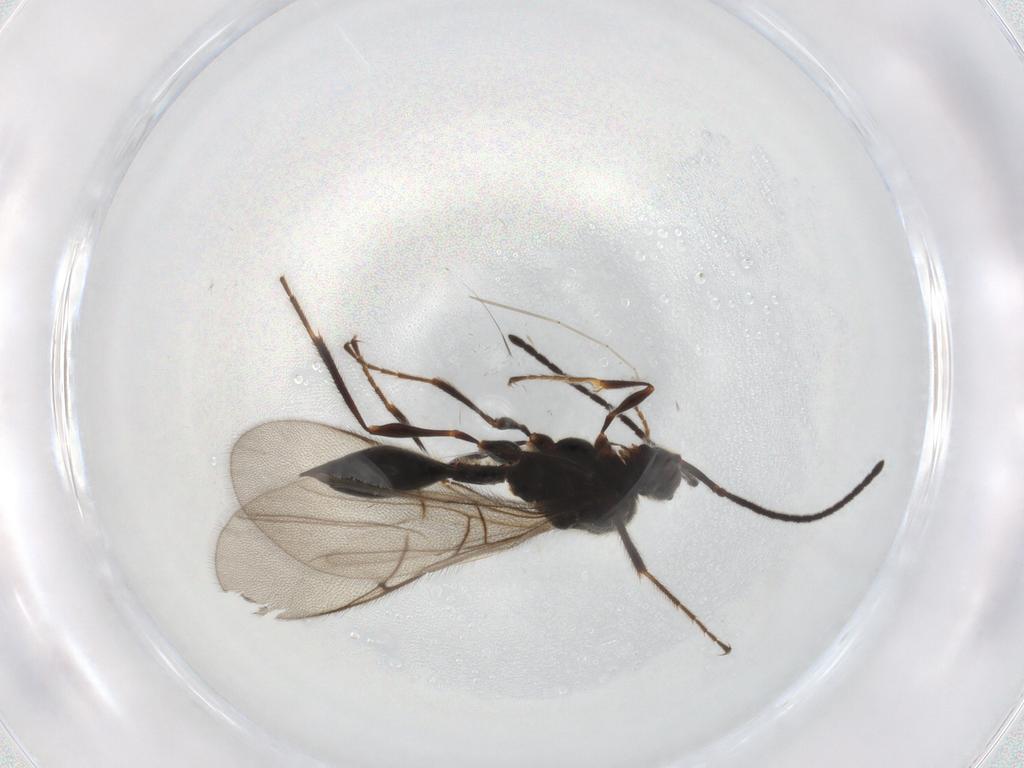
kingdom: Animalia
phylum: Arthropoda
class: Insecta
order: Hymenoptera
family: Diapriidae
